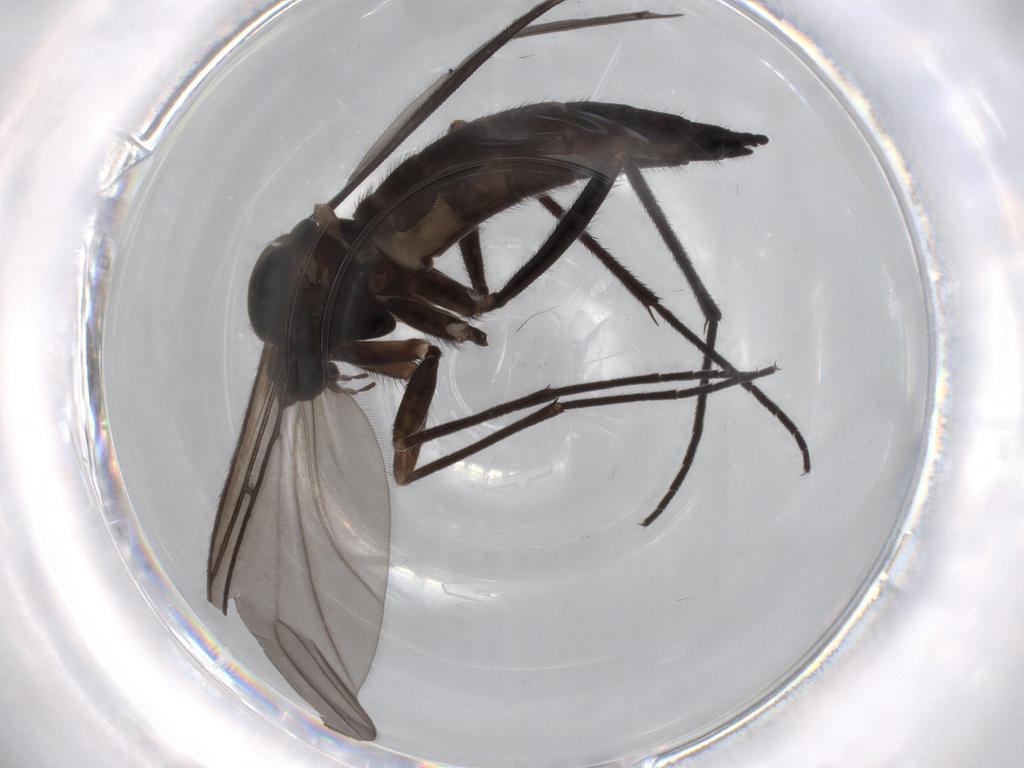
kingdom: Animalia
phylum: Arthropoda
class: Insecta
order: Diptera
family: Sciaridae
